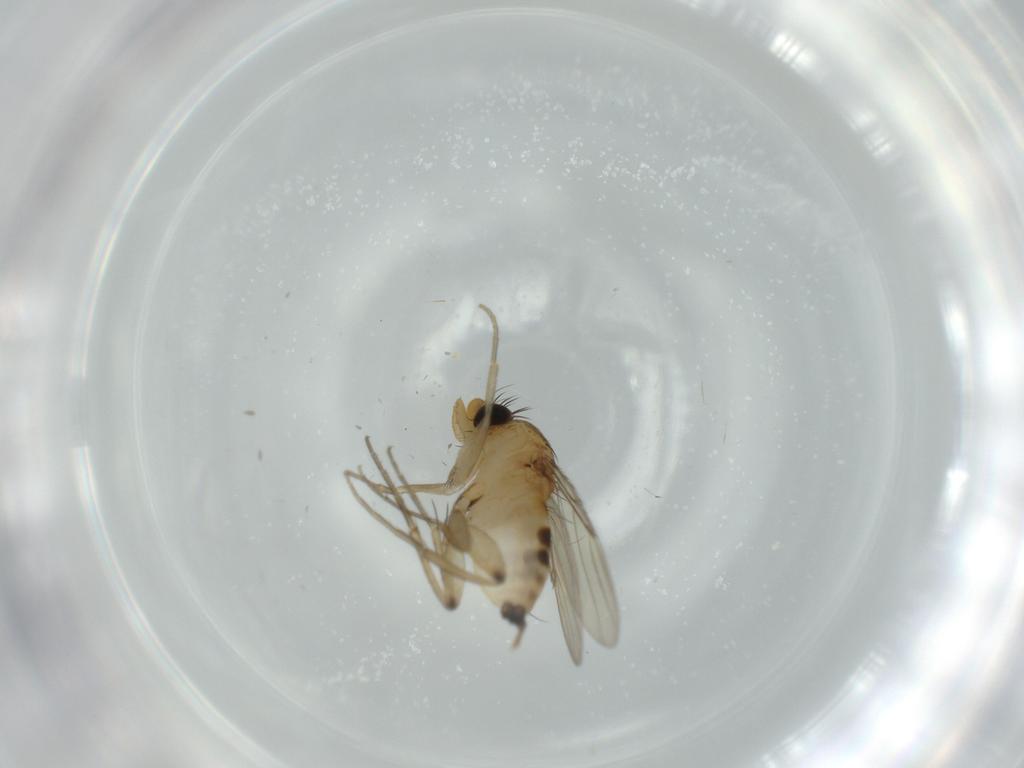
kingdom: Animalia
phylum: Arthropoda
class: Insecta
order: Diptera
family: Phoridae
